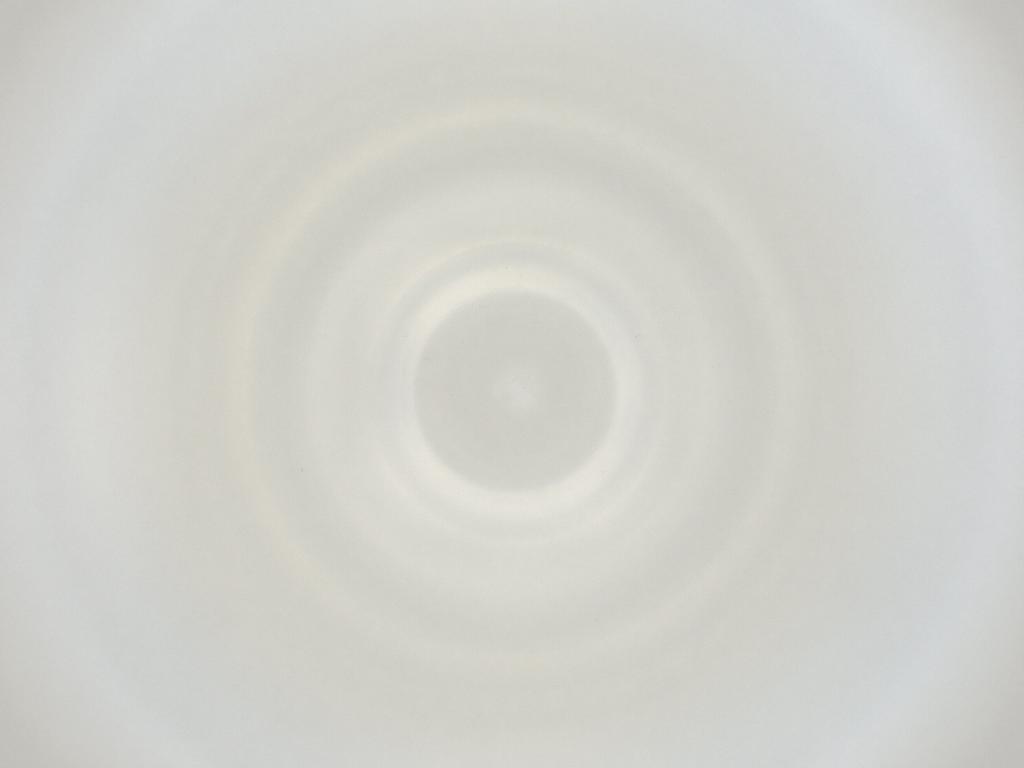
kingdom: Animalia
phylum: Arthropoda
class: Insecta
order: Diptera
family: Cecidomyiidae
